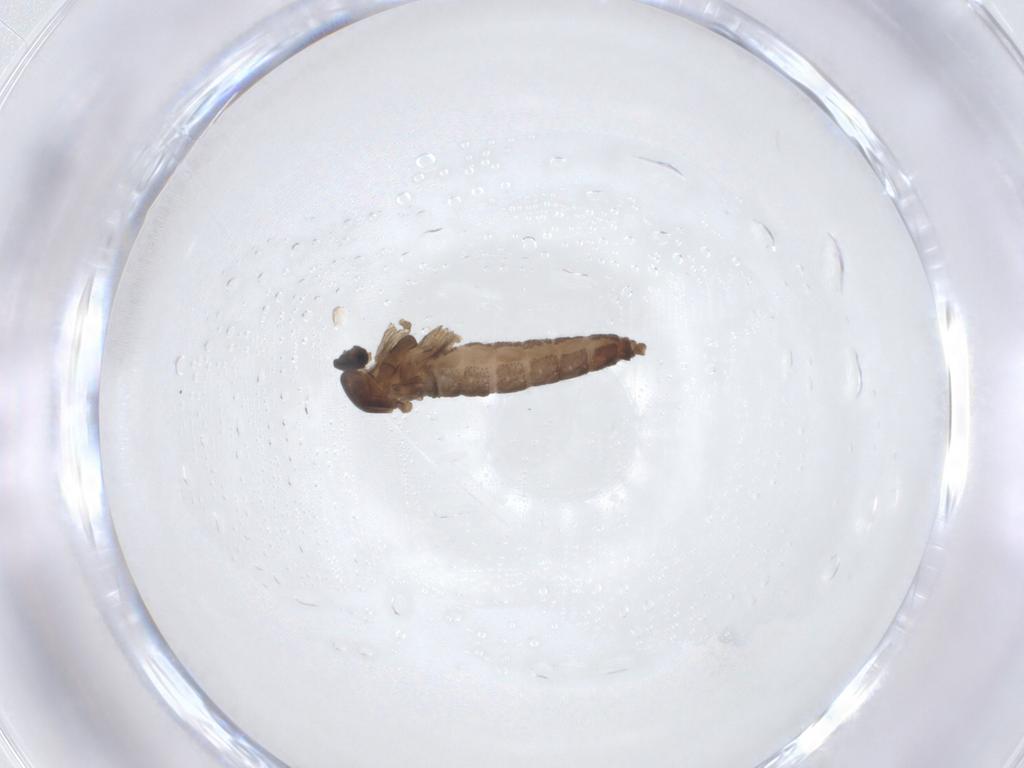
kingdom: Animalia
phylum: Arthropoda
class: Insecta
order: Diptera
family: Cecidomyiidae
